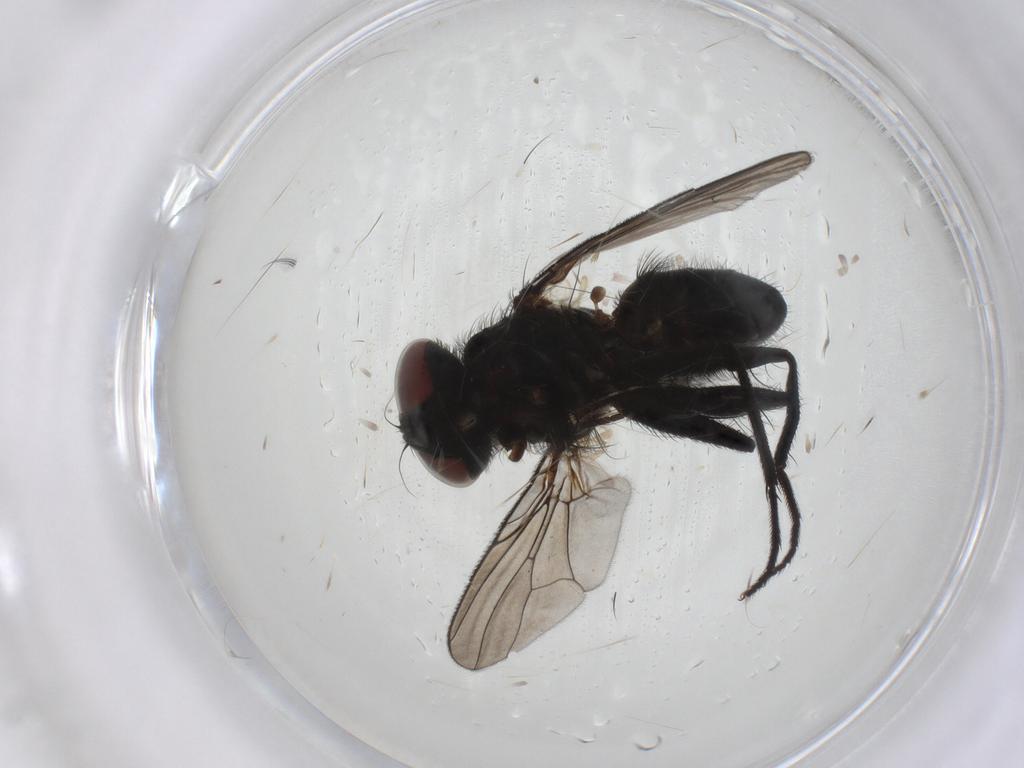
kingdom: Animalia
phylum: Arthropoda
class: Insecta
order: Diptera
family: Muscidae
